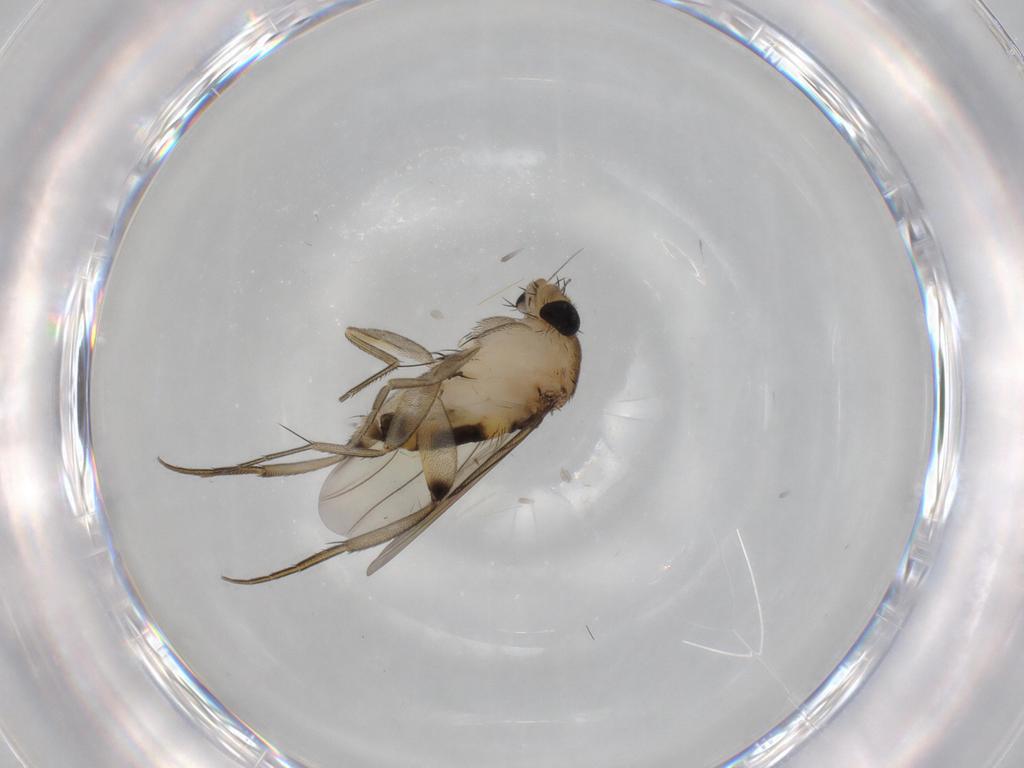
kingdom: Animalia
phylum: Arthropoda
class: Insecta
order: Diptera
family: Phoridae
